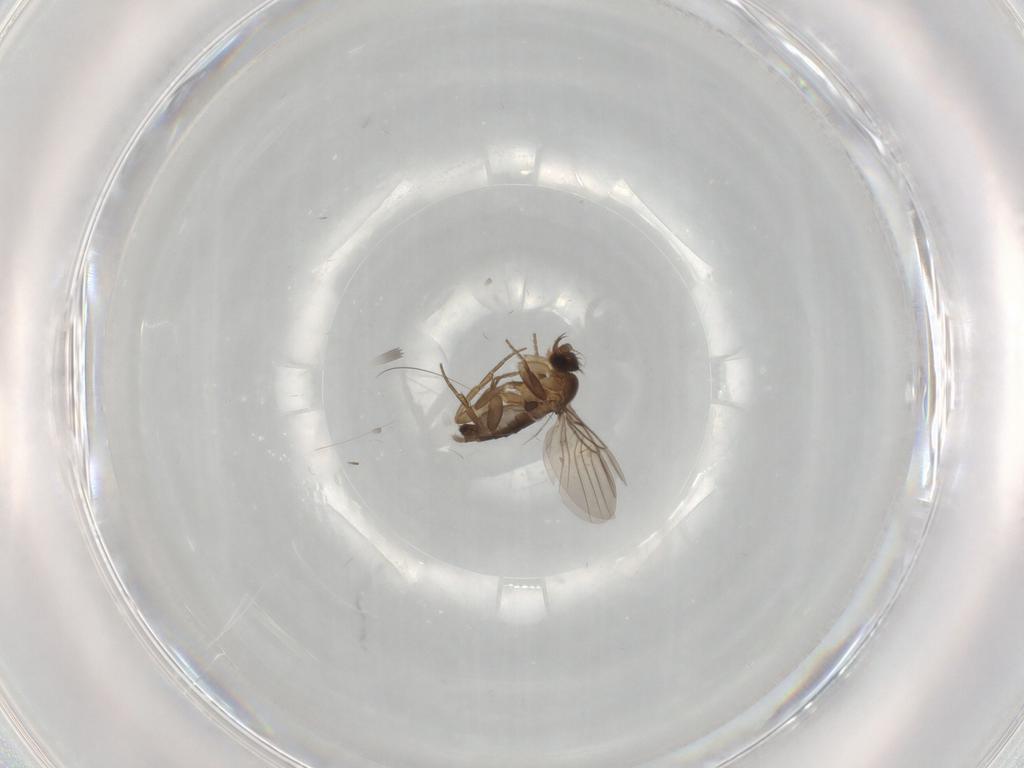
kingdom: Animalia
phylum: Arthropoda
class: Insecta
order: Diptera
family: Phoridae
